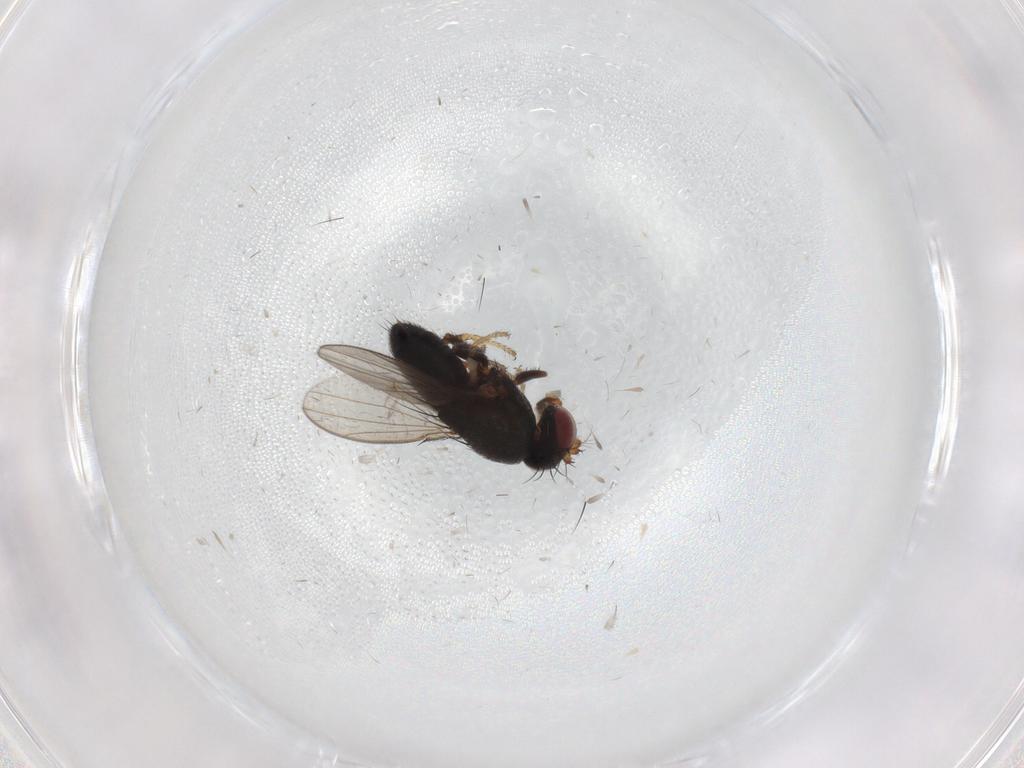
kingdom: Animalia
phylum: Arthropoda
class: Insecta
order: Diptera
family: Ephydridae
